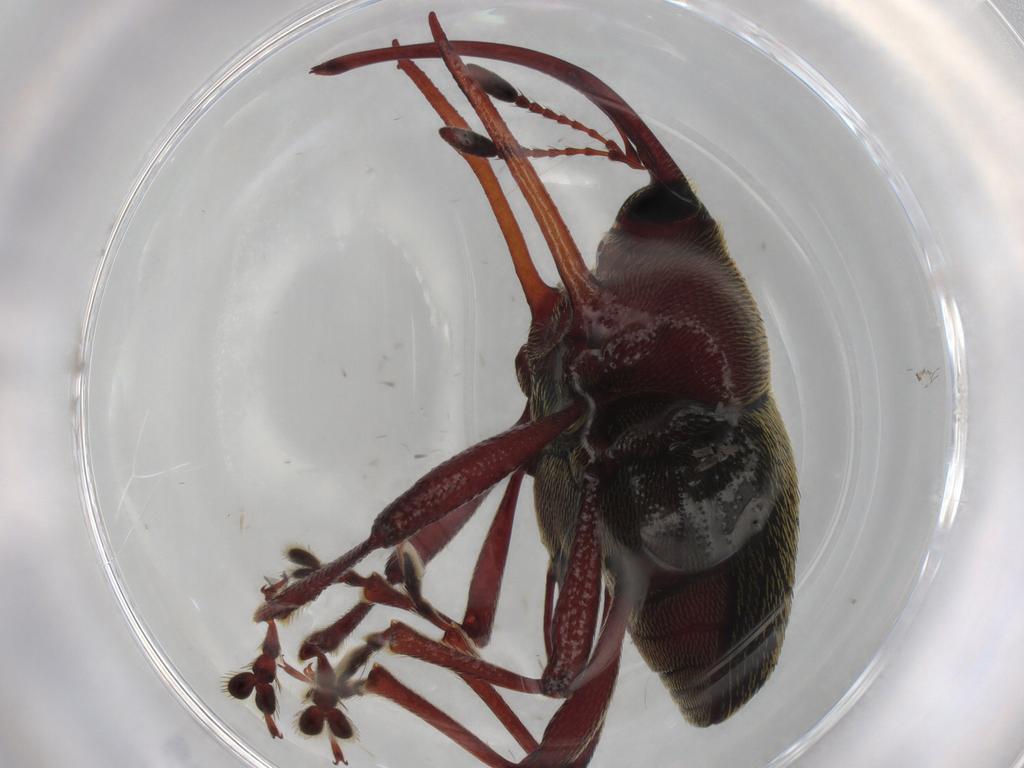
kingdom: Animalia
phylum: Arthropoda
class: Insecta
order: Coleoptera
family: Curculionidae
